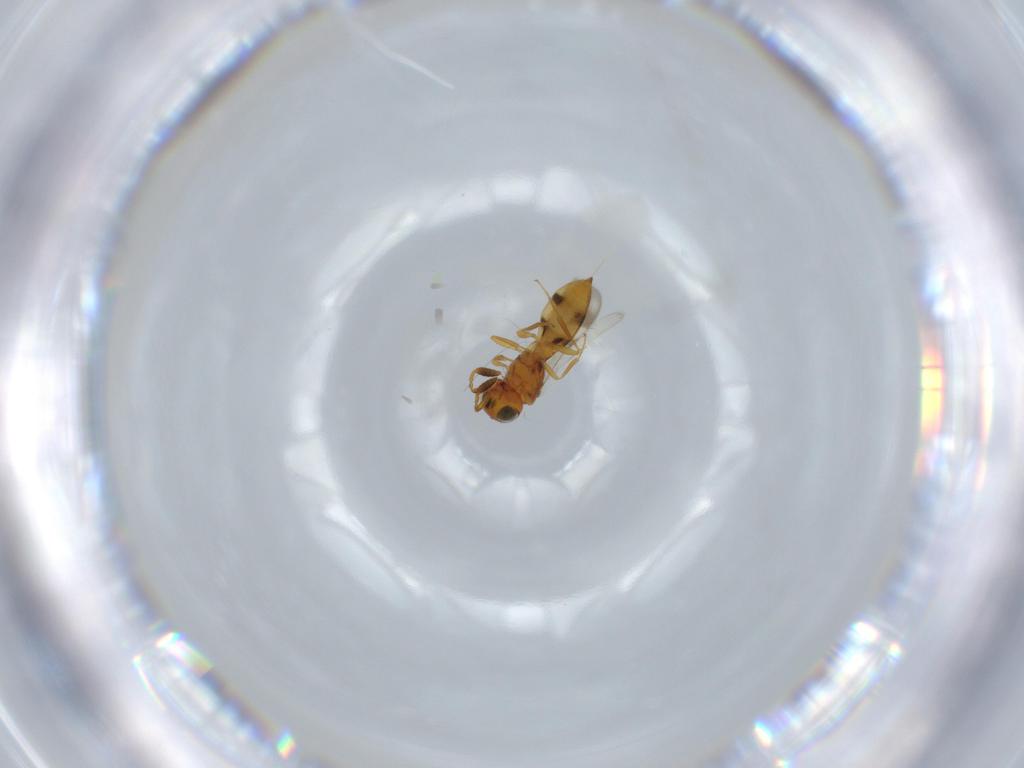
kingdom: Animalia
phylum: Arthropoda
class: Insecta
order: Hymenoptera
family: Scelionidae
